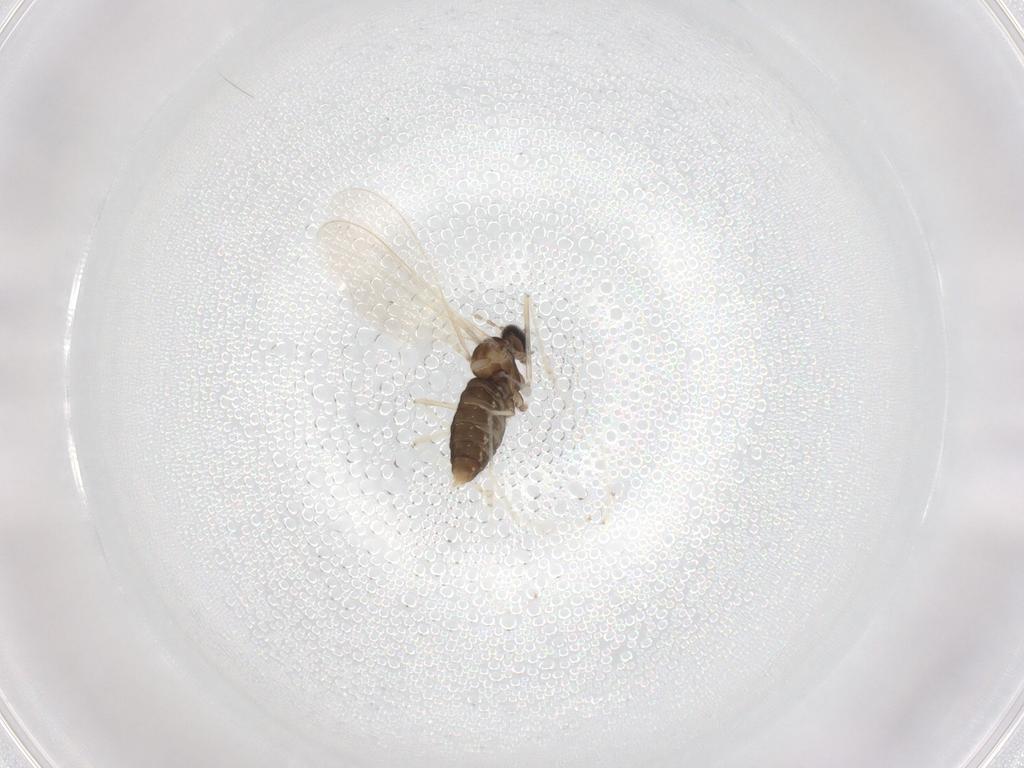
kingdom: Animalia
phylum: Arthropoda
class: Insecta
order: Diptera
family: Cecidomyiidae
